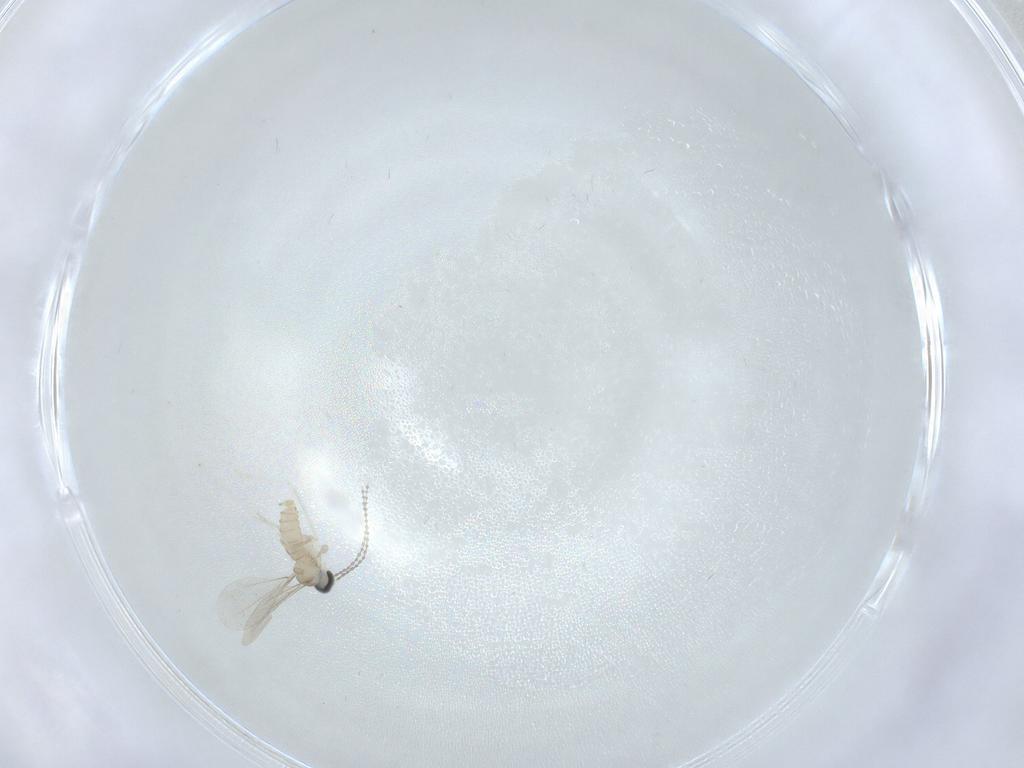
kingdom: Animalia
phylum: Arthropoda
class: Insecta
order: Diptera
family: Cecidomyiidae
